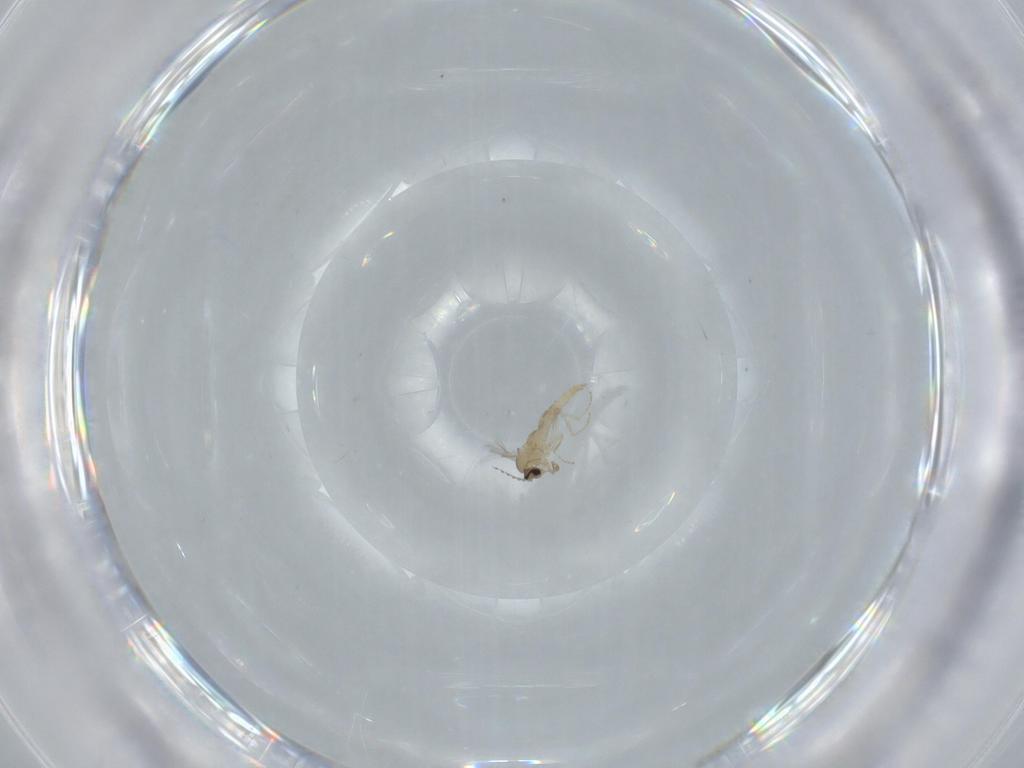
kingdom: Animalia
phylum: Arthropoda
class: Insecta
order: Diptera
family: Cecidomyiidae
